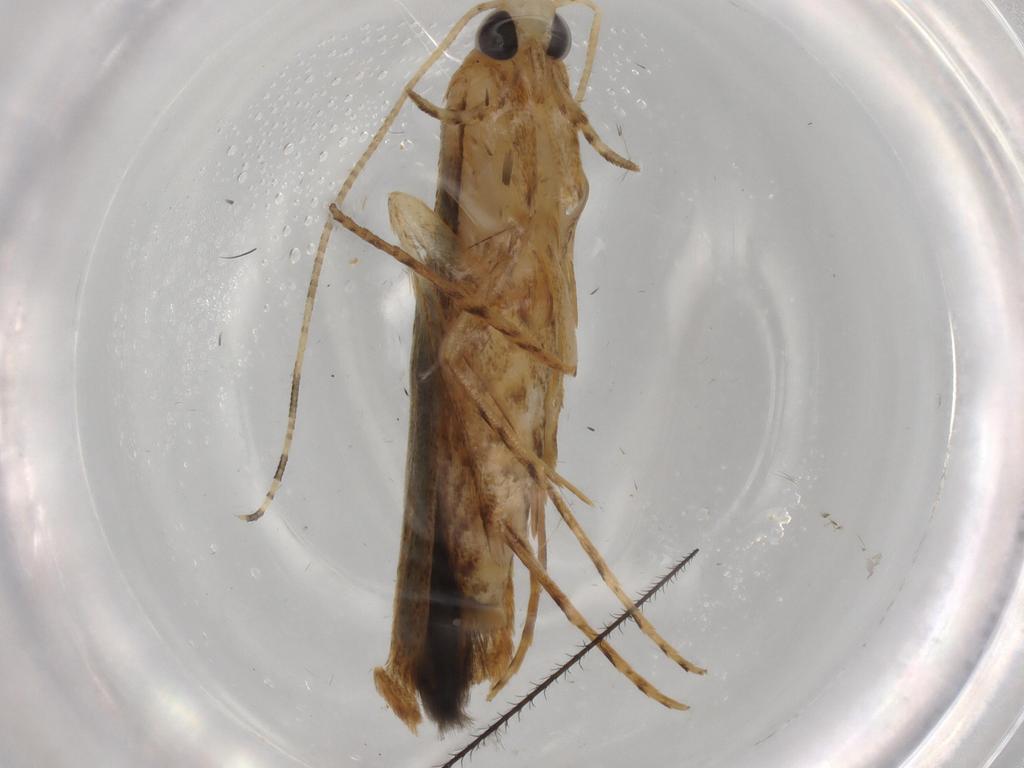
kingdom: Animalia
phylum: Arthropoda
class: Insecta
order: Lepidoptera
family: Batrachedridae
